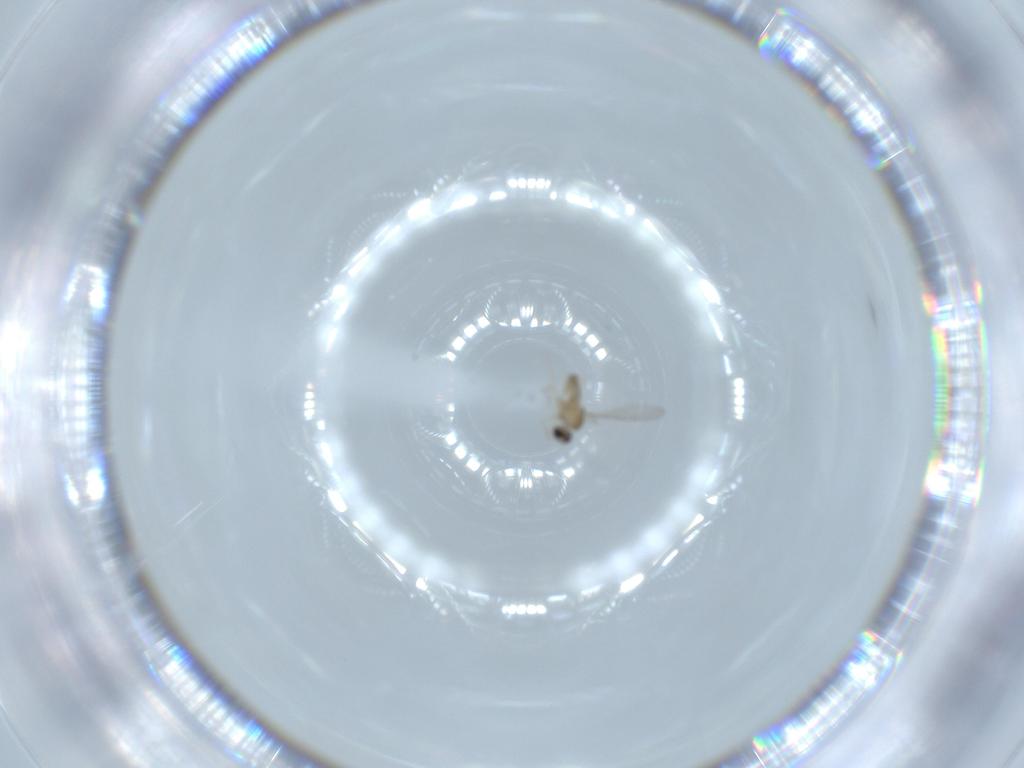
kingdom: Animalia
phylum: Arthropoda
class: Insecta
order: Diptera
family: Cecidomyiidae
